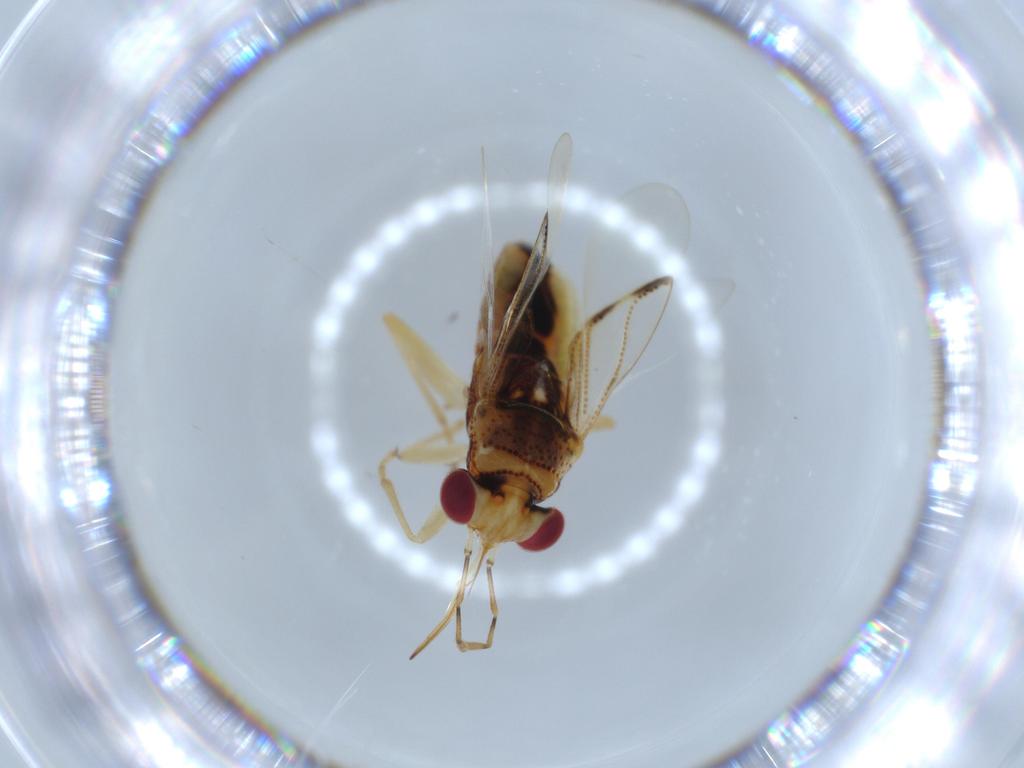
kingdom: Animalia
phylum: Arthropoda
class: Insecta
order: Hemiptera
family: Geocoridae
